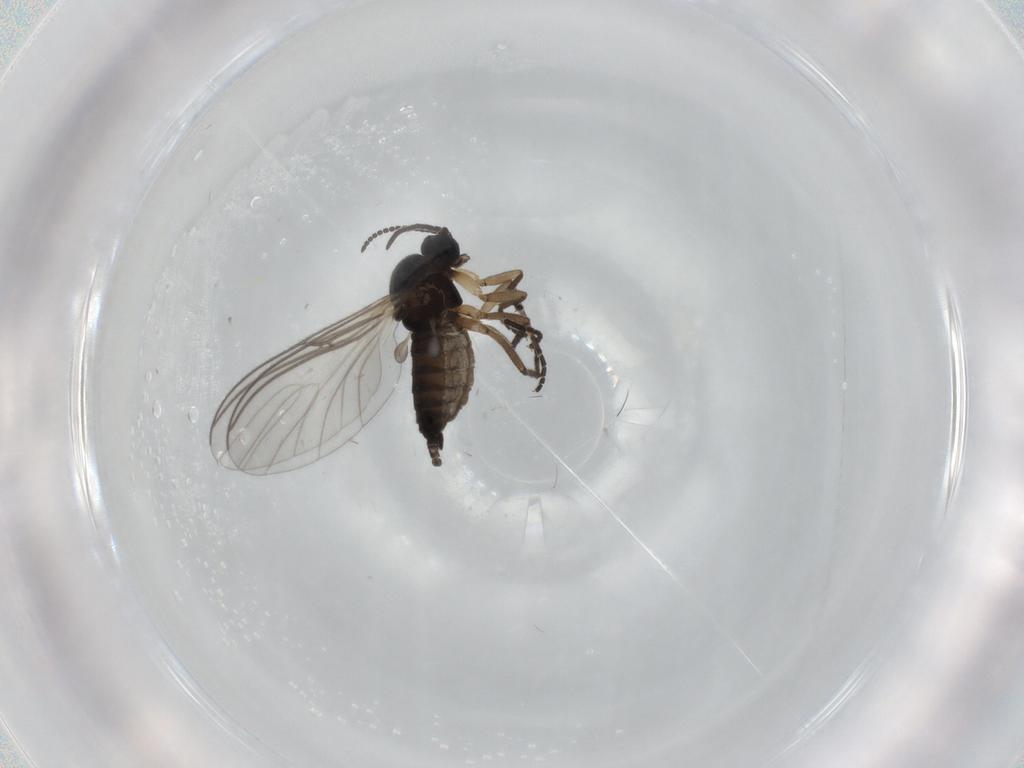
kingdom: Animalia
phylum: Arthropoda
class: Insecta
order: Diptera
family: Sciaridae
